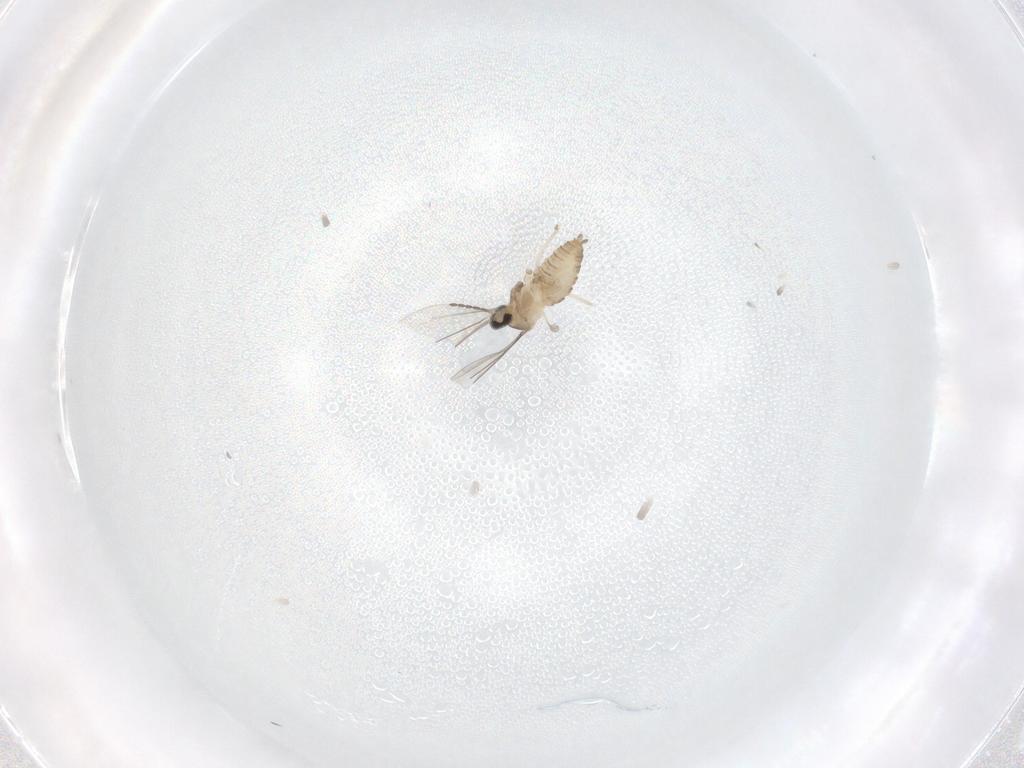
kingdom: Animalia
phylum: Arthropoda
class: Insecta
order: Diptera
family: Cecidomyiidae
